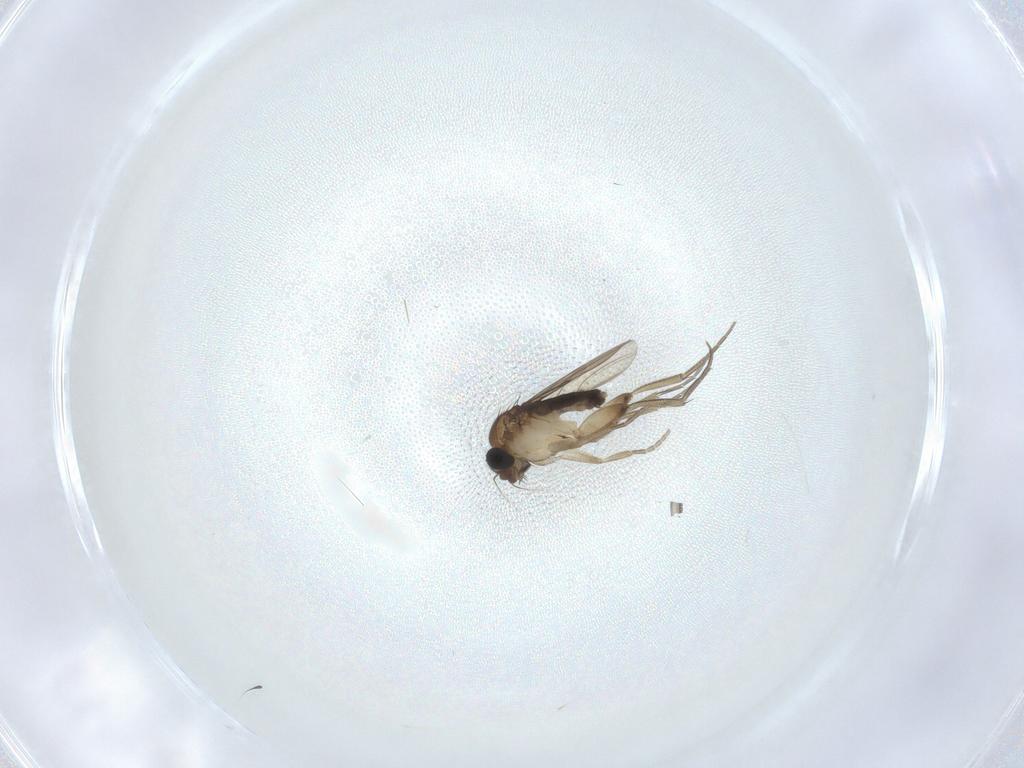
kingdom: Animalia
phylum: Arthropoda
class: Insecta
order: Diptera
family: Phoridae
